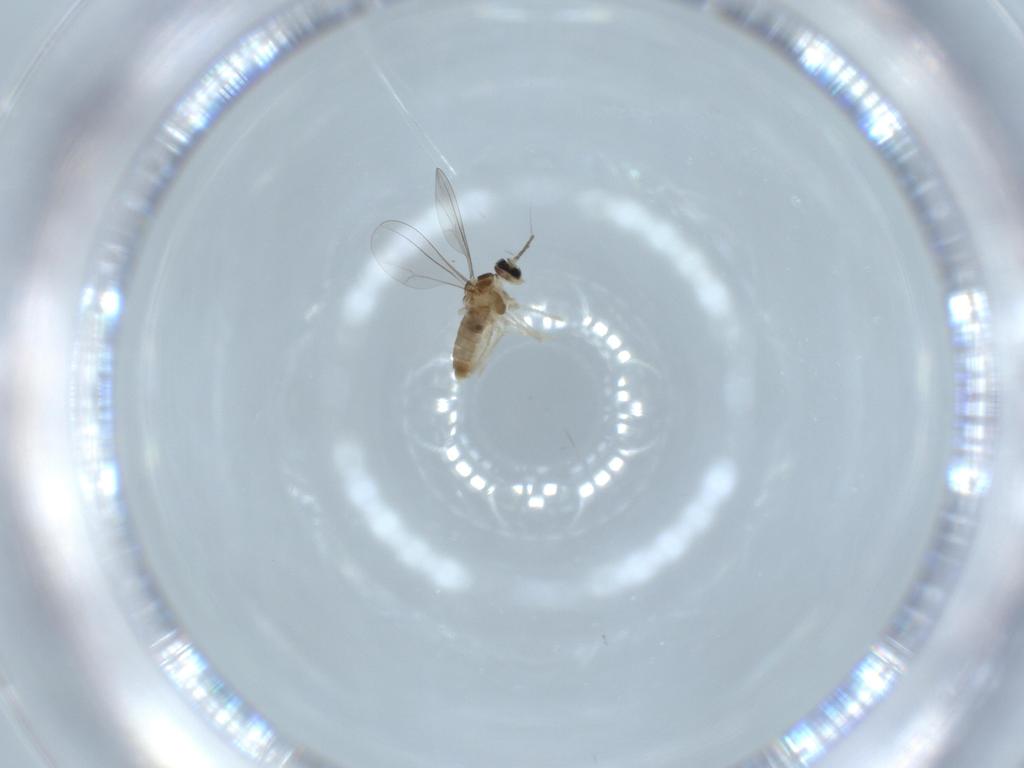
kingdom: Animalia
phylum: Arthropoda
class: Insecta
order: Diptera
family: Cecidomyiidae
